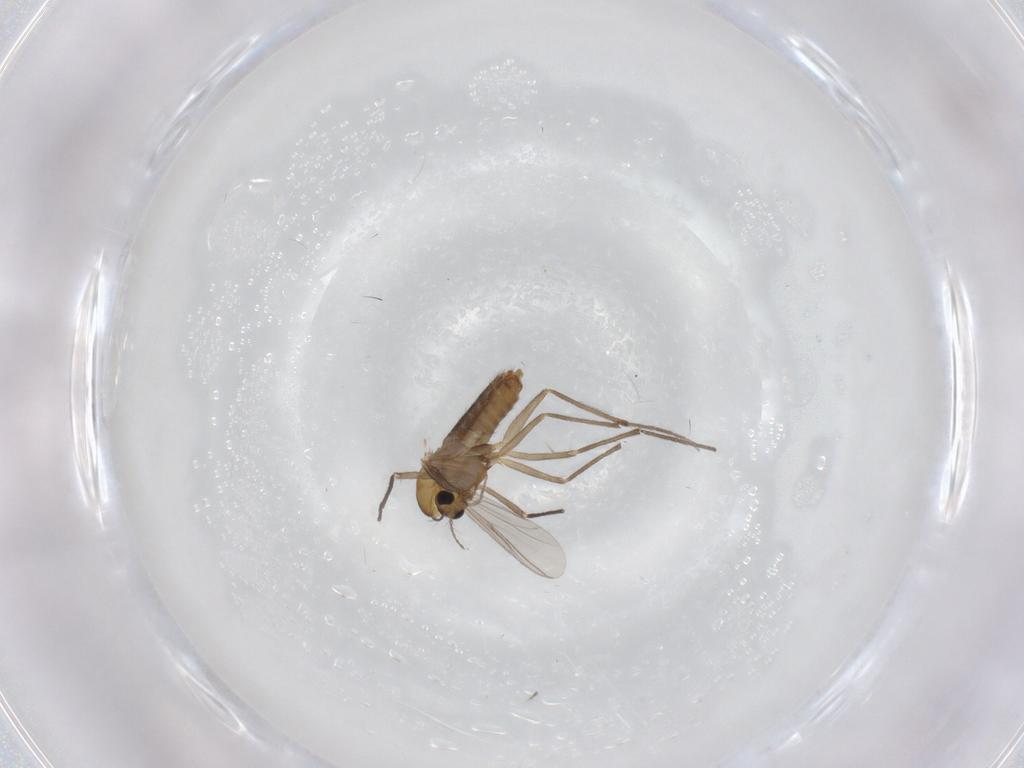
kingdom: Animalia
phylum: Arthropoda
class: Insecta
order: Diptera
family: Chironomidae
